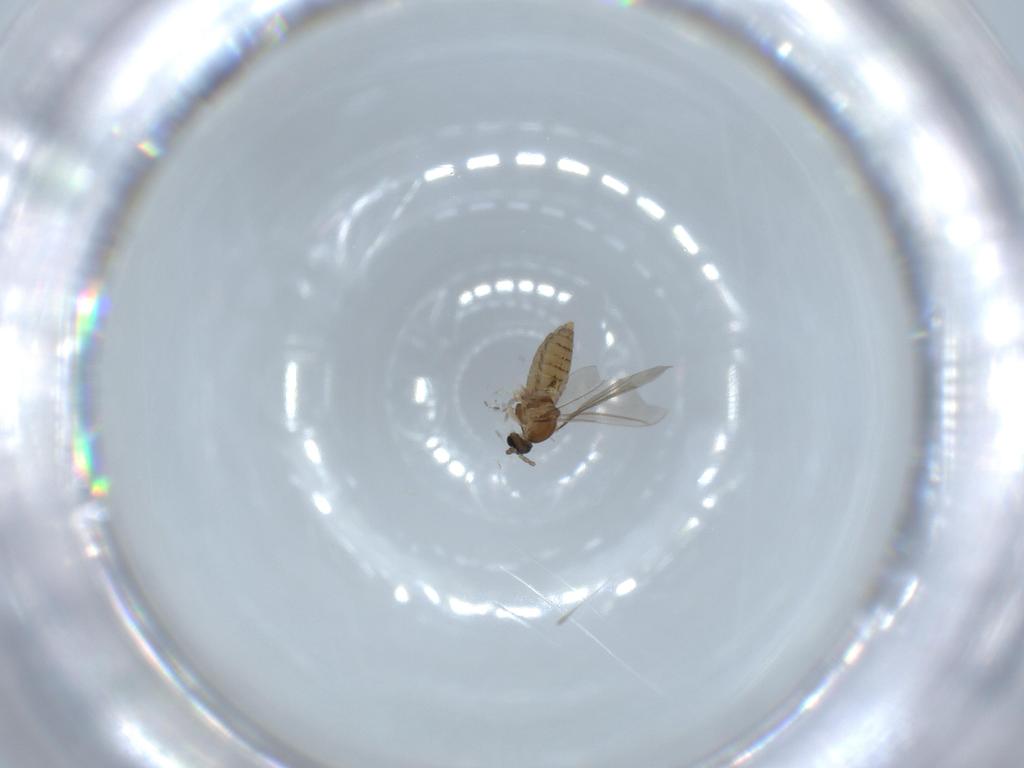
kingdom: Animalia
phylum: Arthropoda
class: Insecta
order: Diptera
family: Cecidomyiidae
